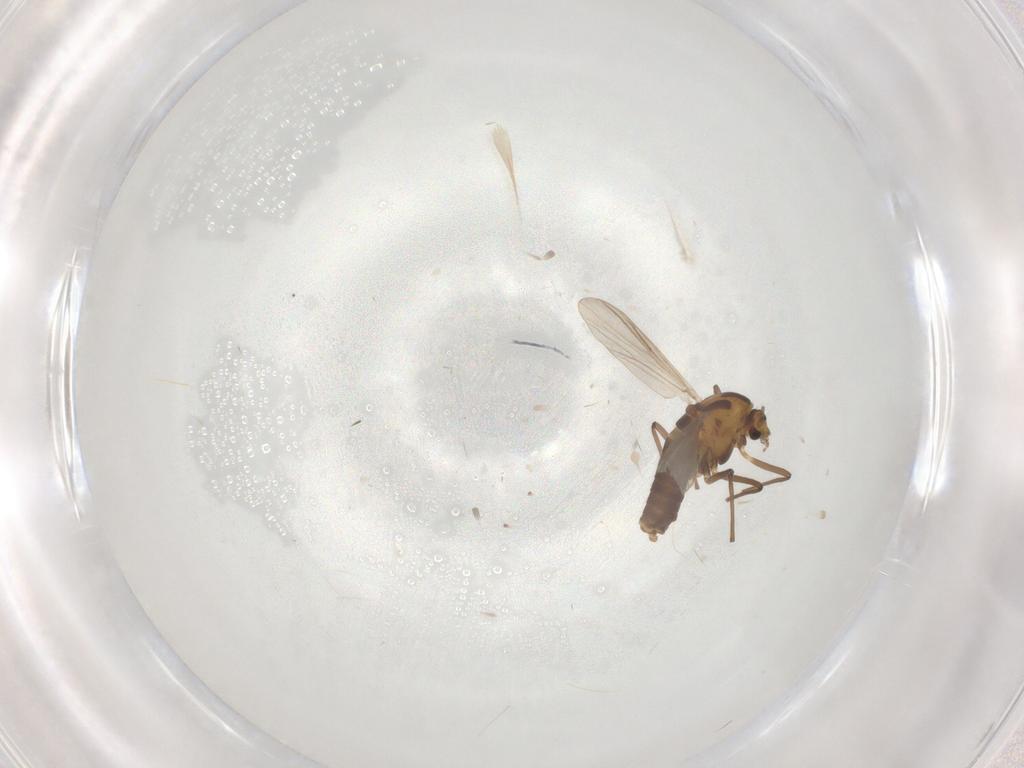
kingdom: Animalia
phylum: Arthropoda
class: Insecta
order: Diptera
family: Chironomidae
